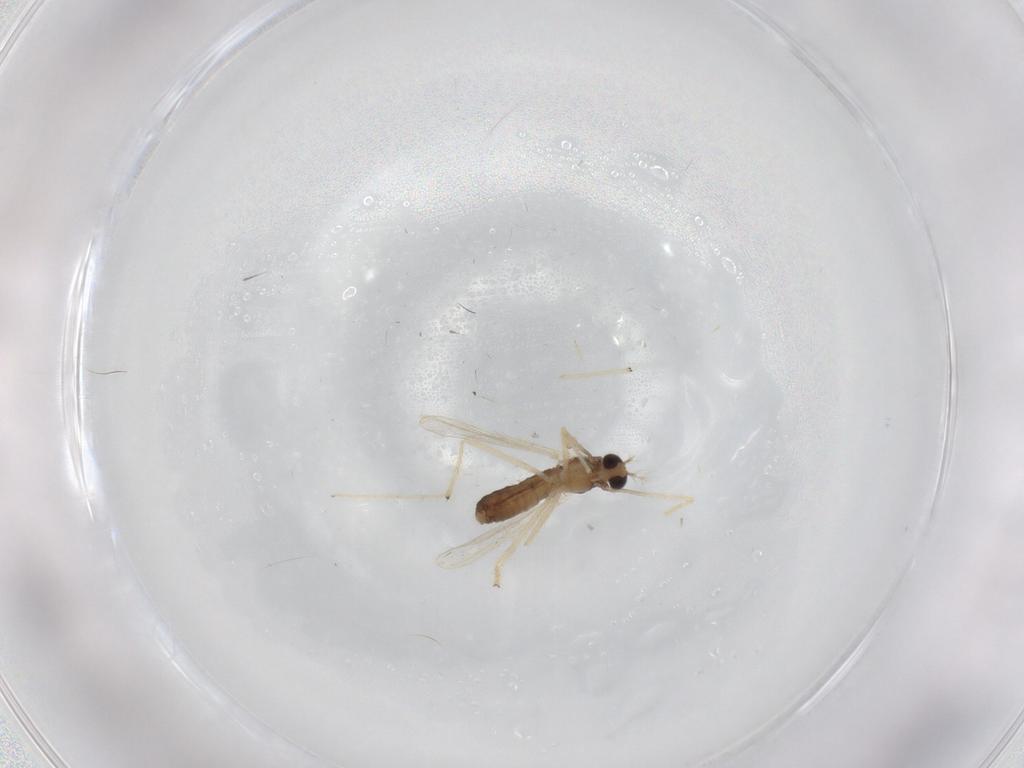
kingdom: Animalia
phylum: Arthropoda
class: Insecta
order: Diptera
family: Chironomidae
